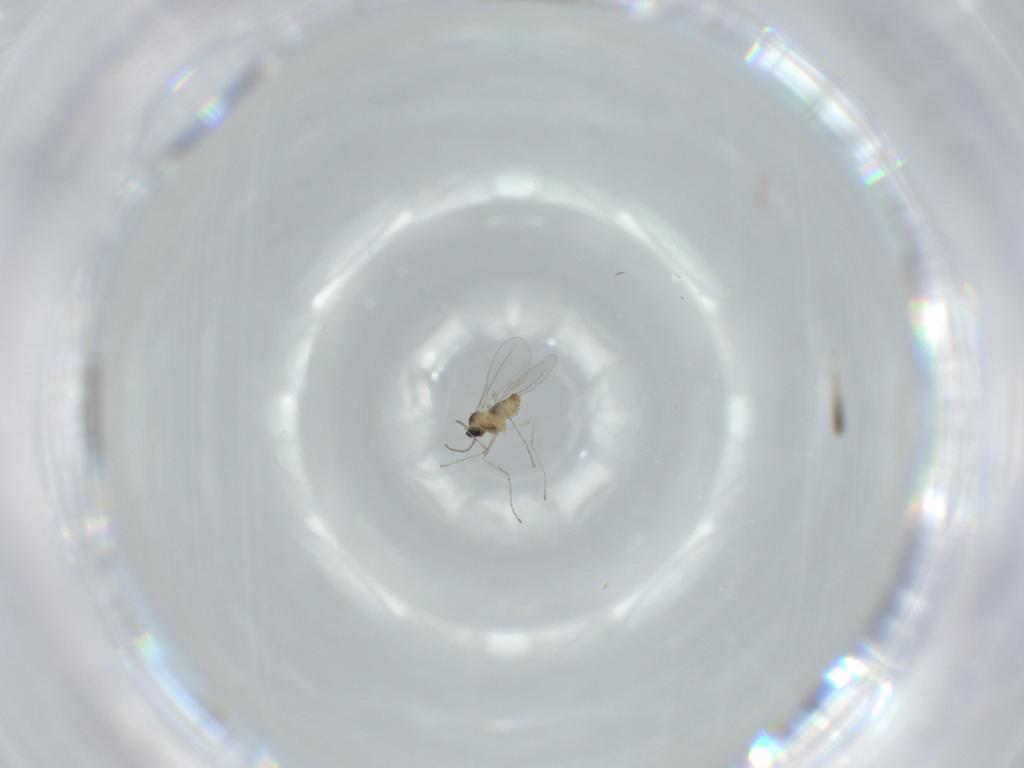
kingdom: Animalia
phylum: Arthropoda
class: Insecta
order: Diptera
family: Cecidomyiidae
